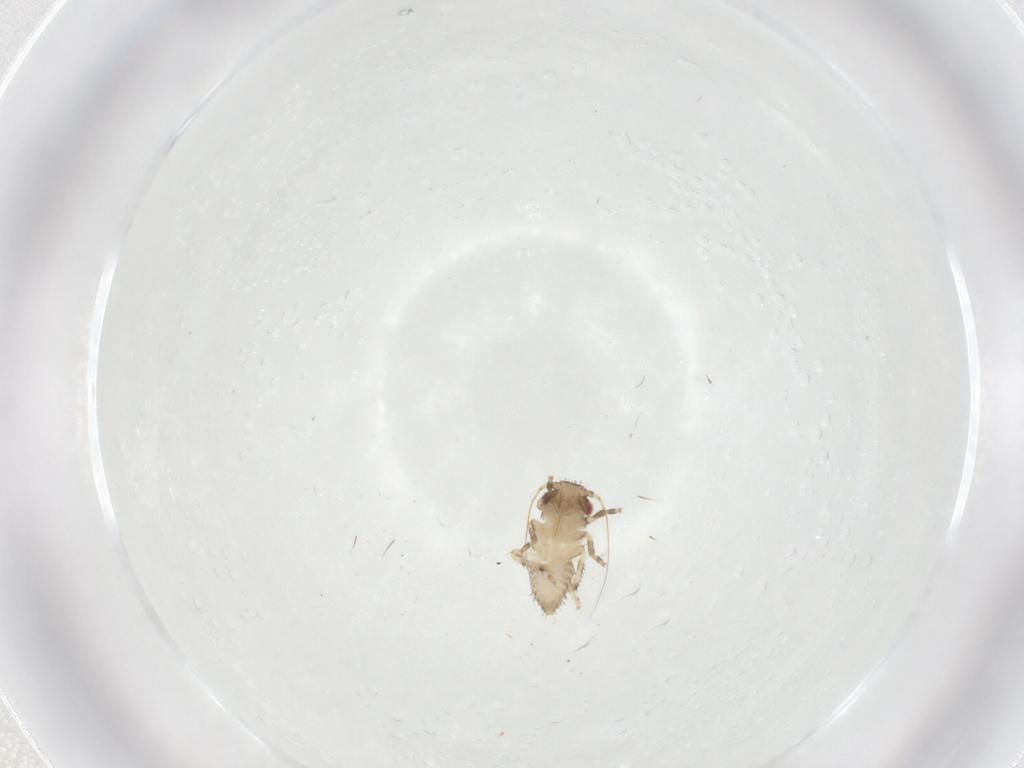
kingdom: Animalia
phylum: Arthropoda
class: Insecta
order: Hemiptera
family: Cicadellidae
